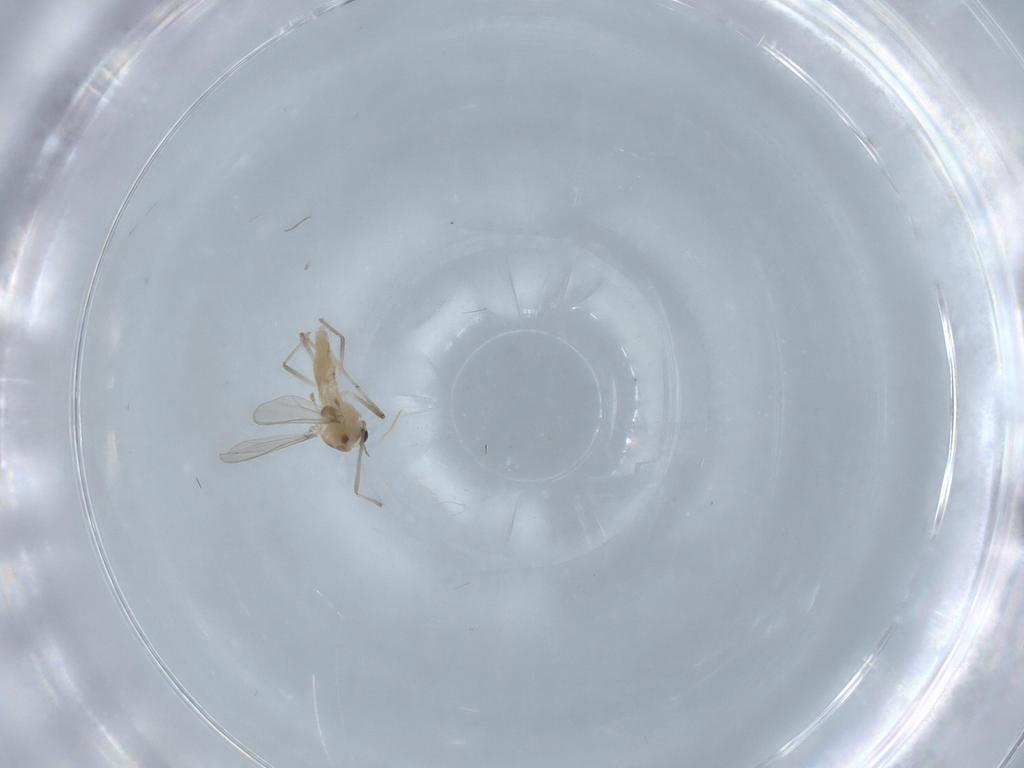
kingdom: Animalia
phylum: Arthropoda
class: Insecta
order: Diptera
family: Chironomidae
